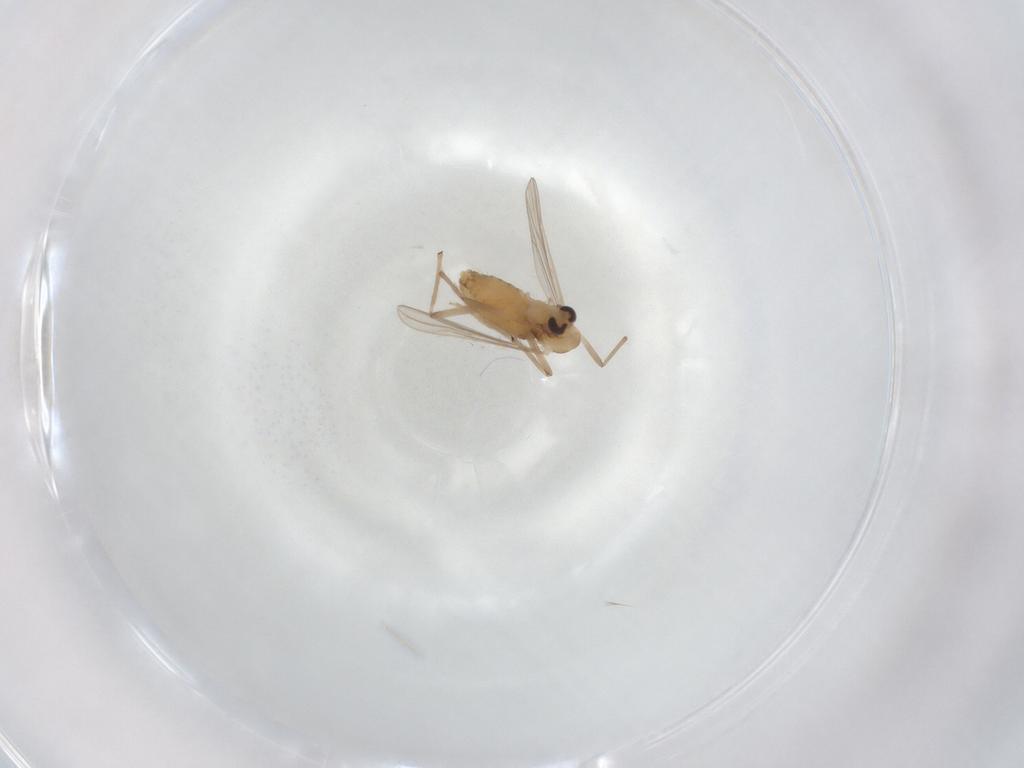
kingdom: Animalia
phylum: Arthropoda
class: Insecta
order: Diptera
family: Chironomidae
